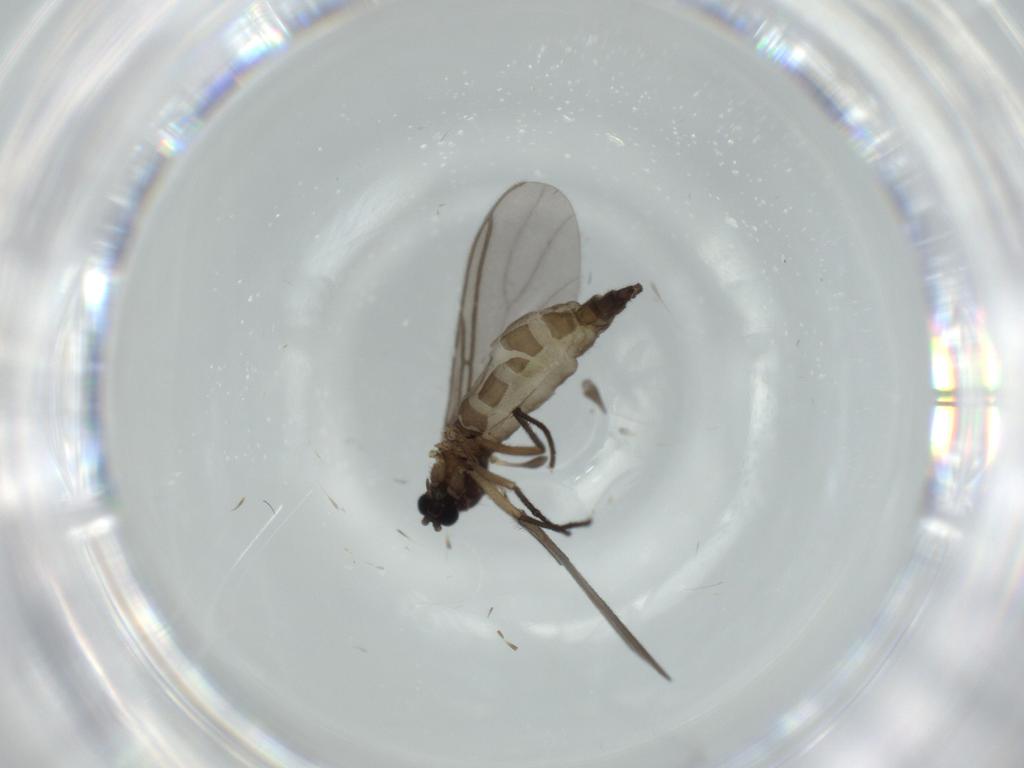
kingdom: Animalia
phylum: Arthropoda
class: Insecta
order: Diptera
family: Sciaridae
